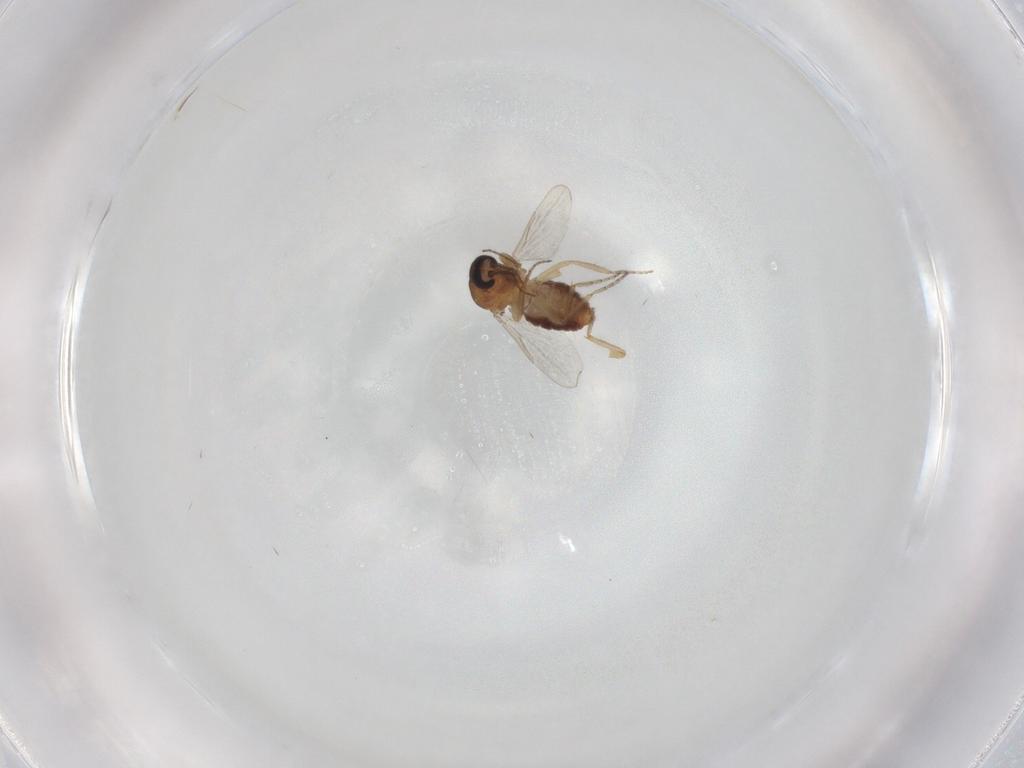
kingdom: Animalia
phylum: Arthropoda
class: Insecta
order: Diptera
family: Ceratopogonidae
